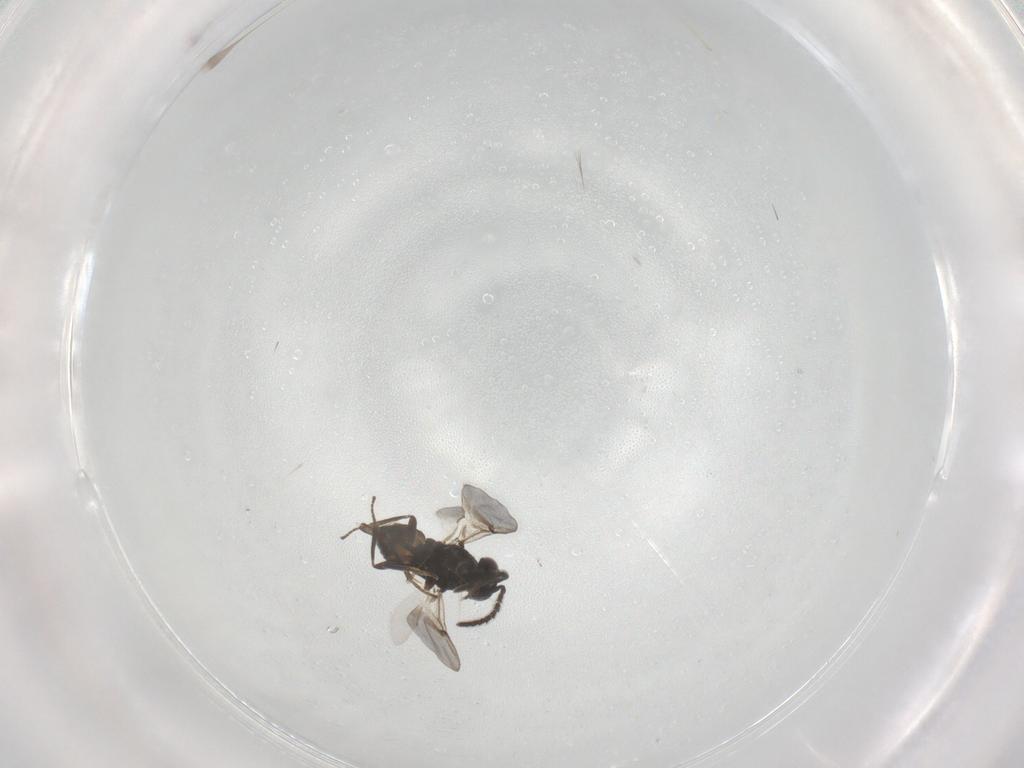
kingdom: Animalia
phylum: Arthropoda
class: Insecta
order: Hymenoptera
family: Encyrtidae
